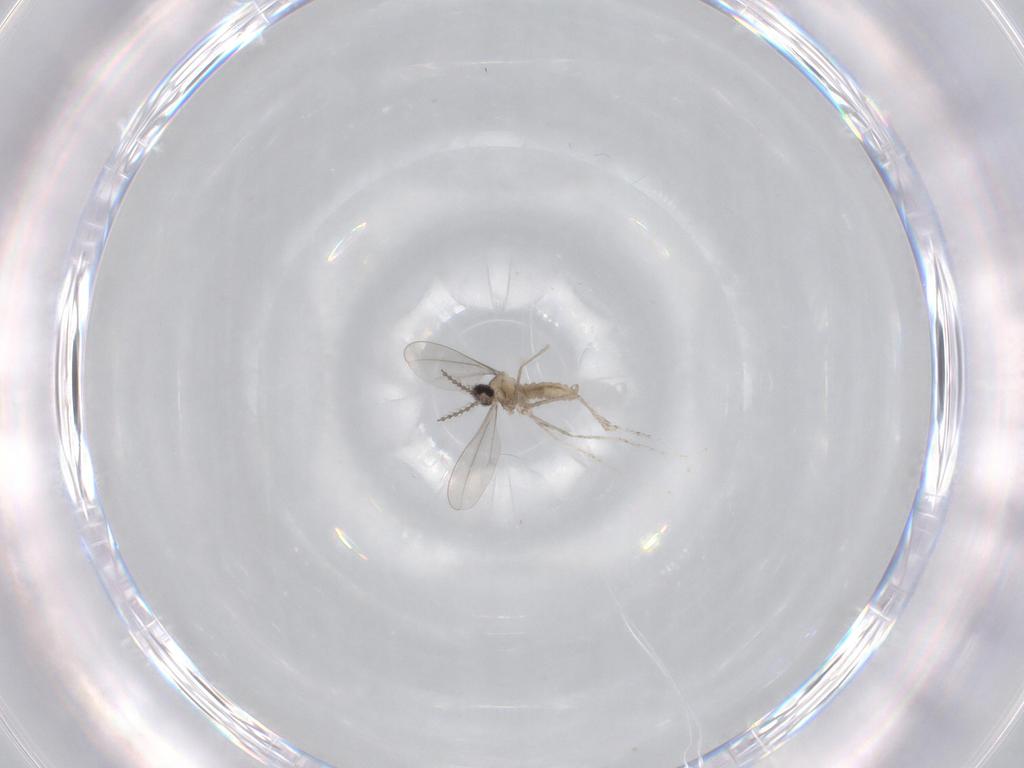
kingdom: Animalia
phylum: Arthropoda
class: Insecta
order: Diptera
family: Cecidomyiidae
